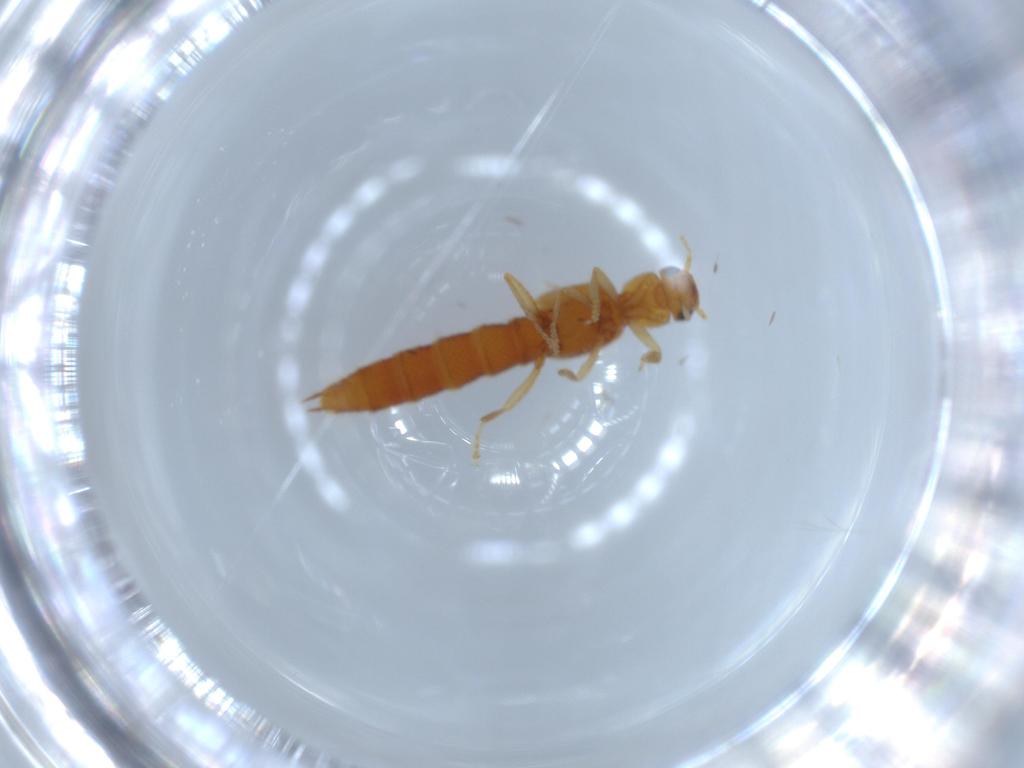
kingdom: Animalia
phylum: Arthropoda
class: Insecta
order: Coleoptera
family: Staphylinidae
